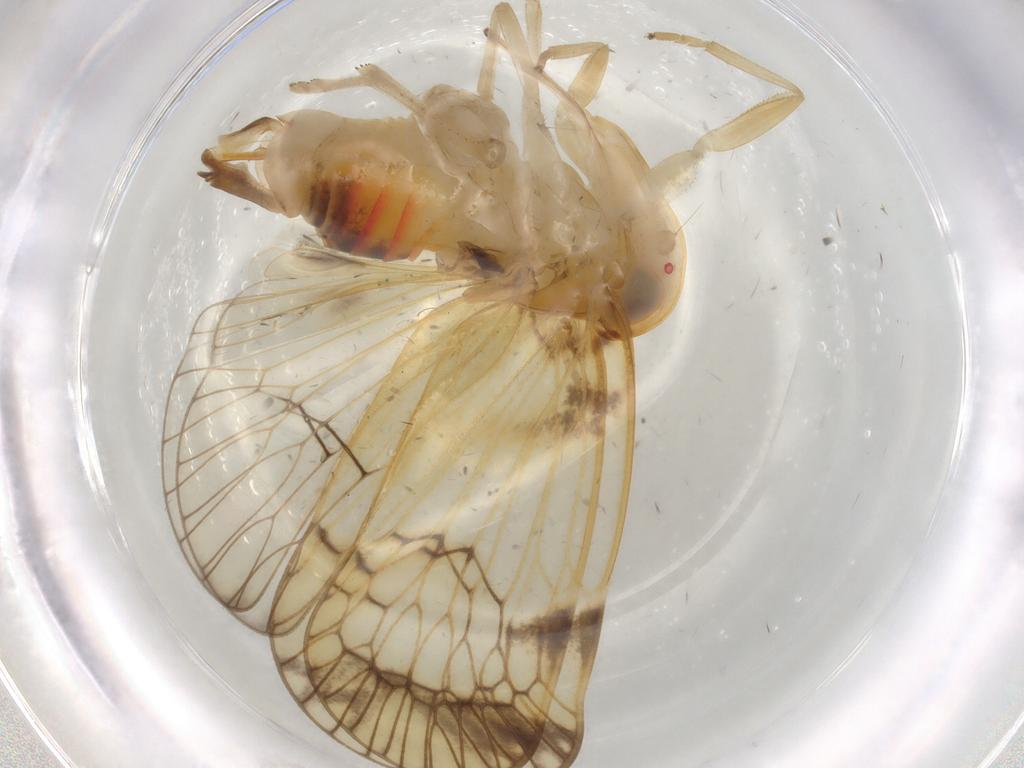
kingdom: Animalia
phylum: Arthropoda
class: Insecta
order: Hemiptera
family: Cixiidae
